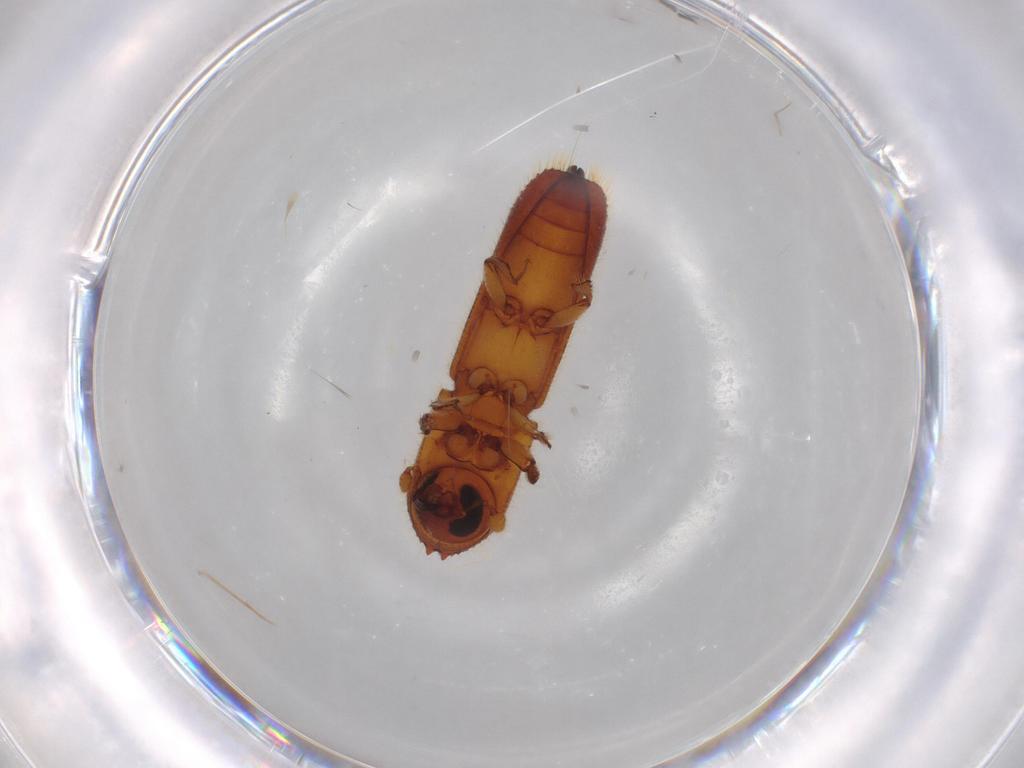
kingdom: Animalia
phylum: Arthropoda
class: Insecta
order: Coleoptera
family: Curculionidae
